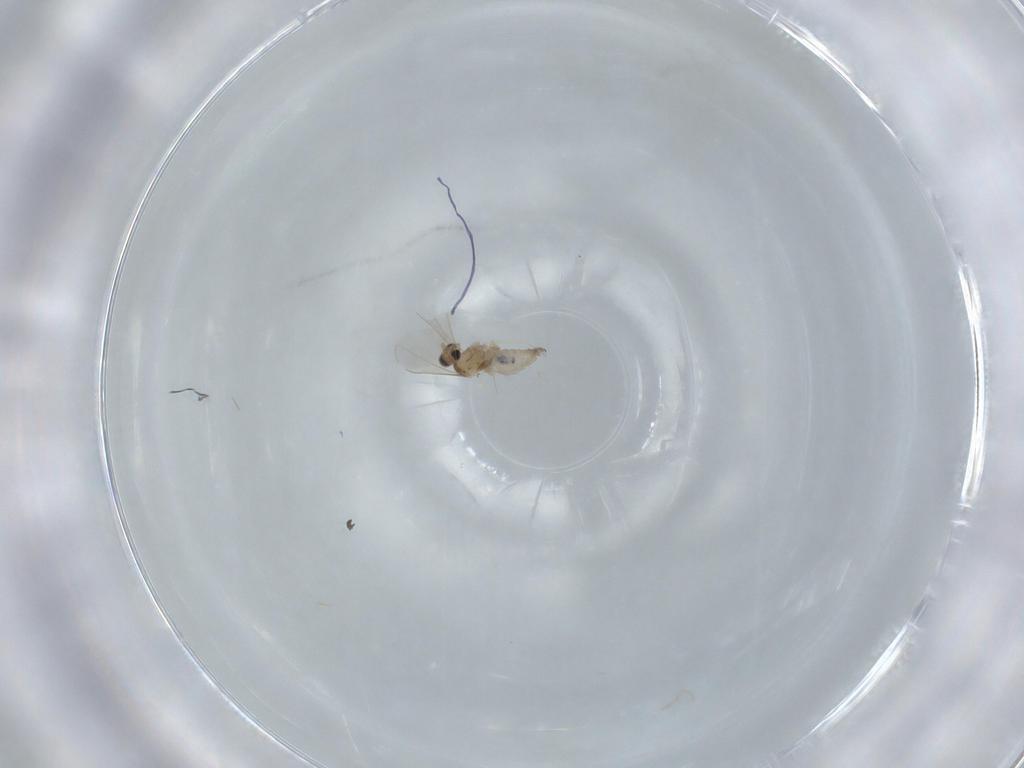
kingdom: Animalia
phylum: Arthropoda
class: Insecta
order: Diptera
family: Cecidomyiidae
